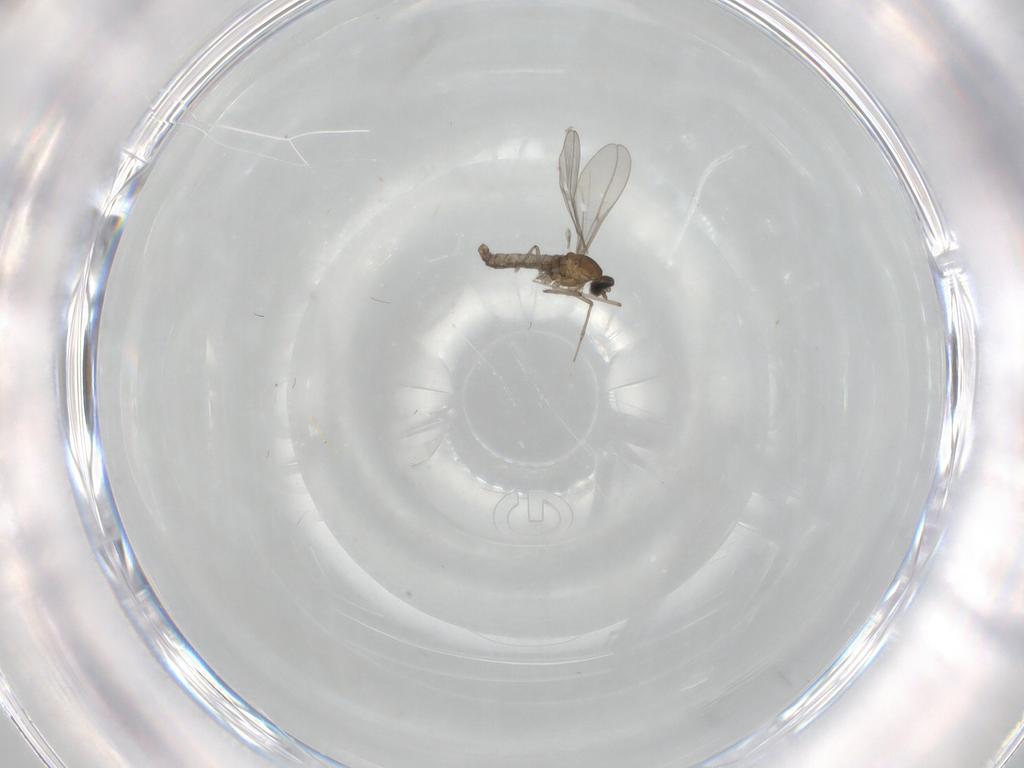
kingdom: Animalia
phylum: Arthropoda
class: Insecta
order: Diptera
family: Cecidomyiidae
